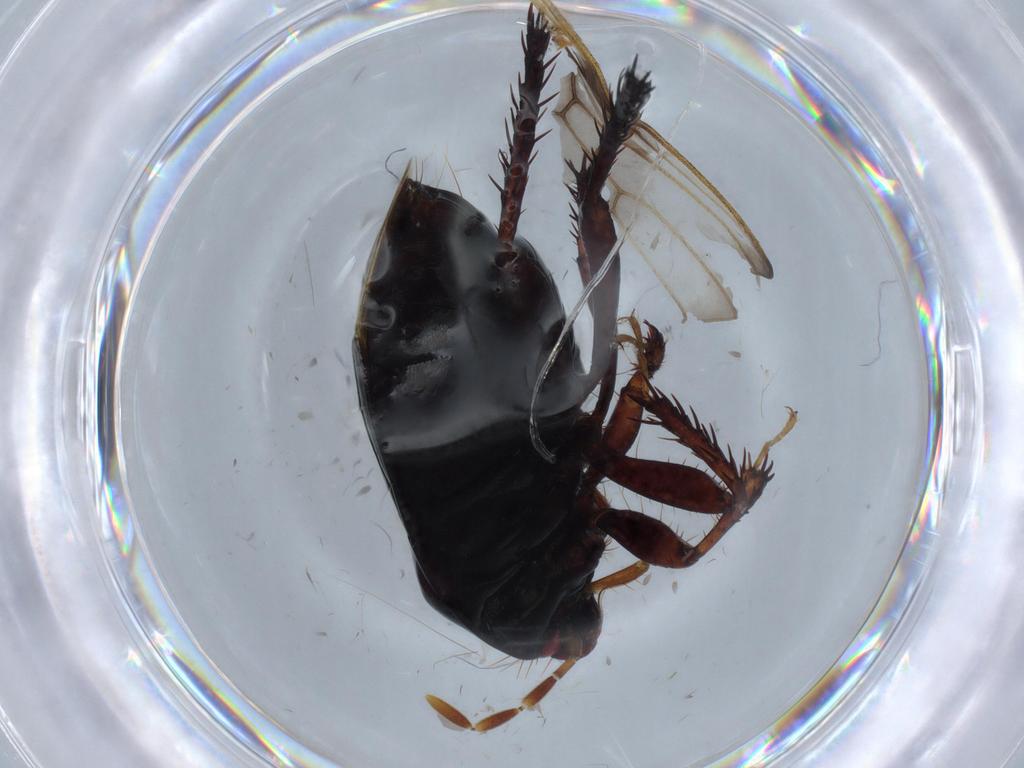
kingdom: Animalia
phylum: Arthropoda
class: Insecta
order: Hemiptera
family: Cydnidae
